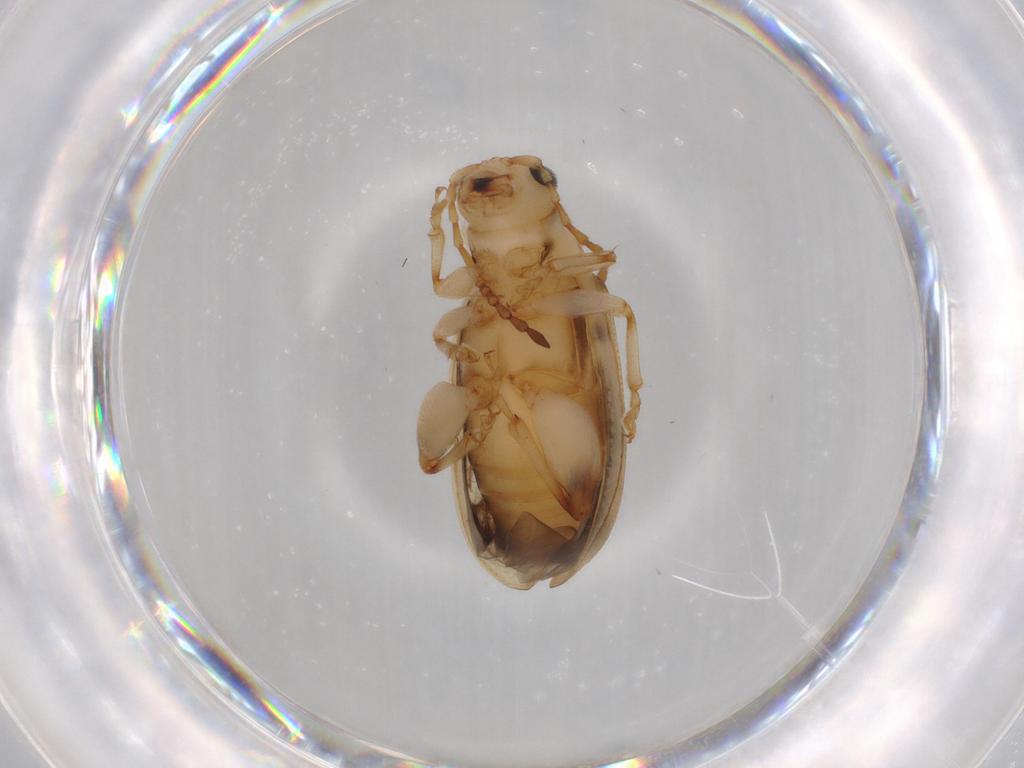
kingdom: Animalia
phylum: Arthropoda
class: Insecta
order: Coleoptera
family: Chrysomelidae
